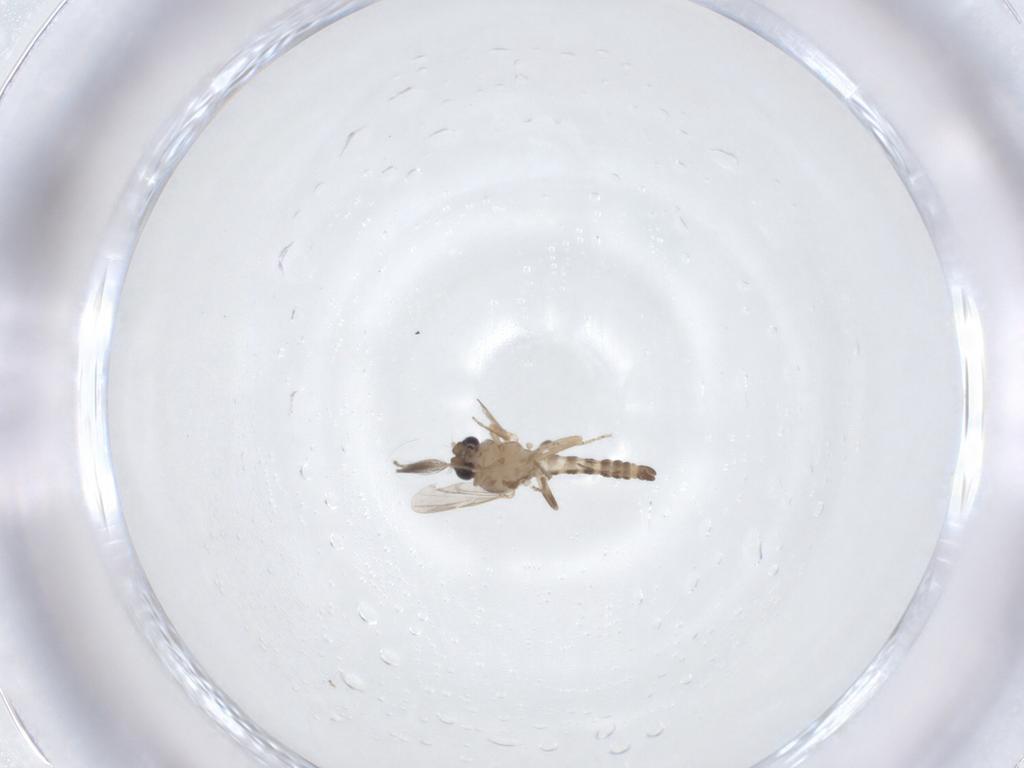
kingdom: Animalia
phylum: Arthropoda
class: Insecta
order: Diptera
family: Ceratopogonidae
